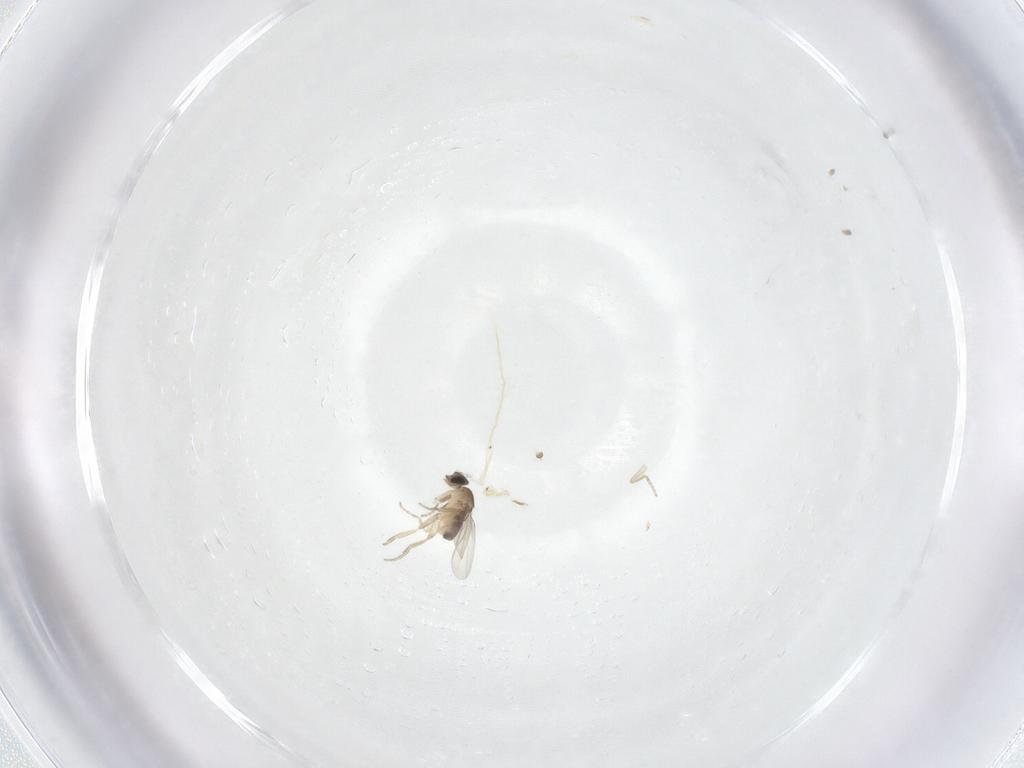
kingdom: Animalia
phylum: Arthropoda
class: Insecta
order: Diptera
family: Phoridae
